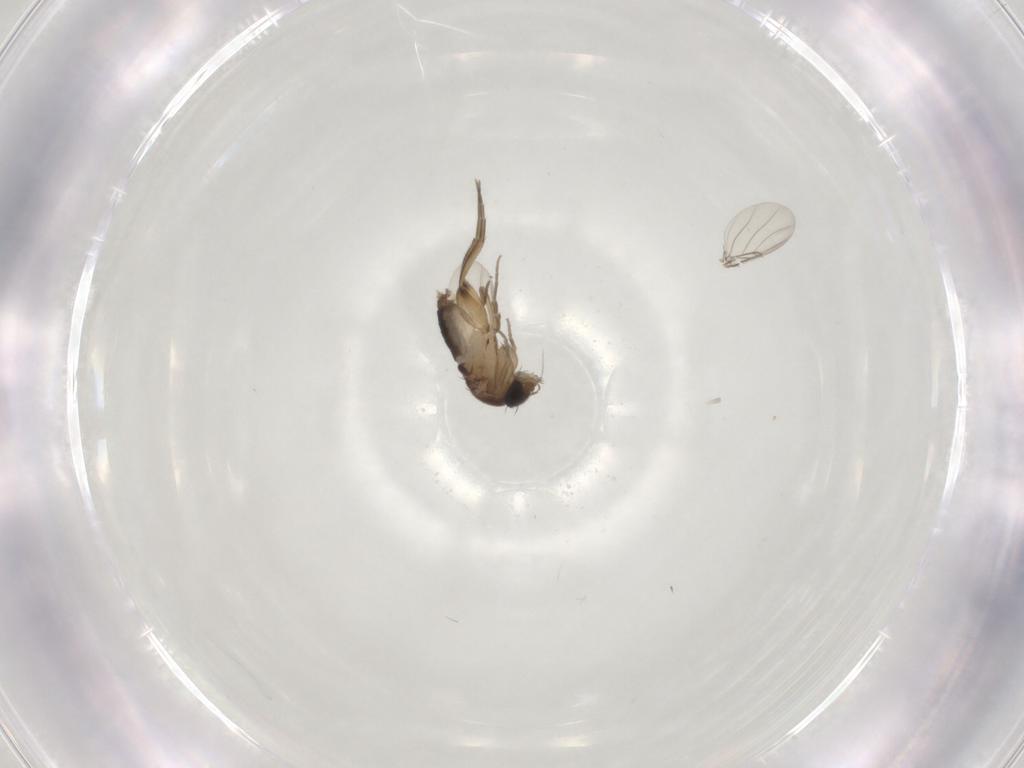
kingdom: Animalia
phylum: Arthropoda
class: Insecta
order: Diptera
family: Phoridae
